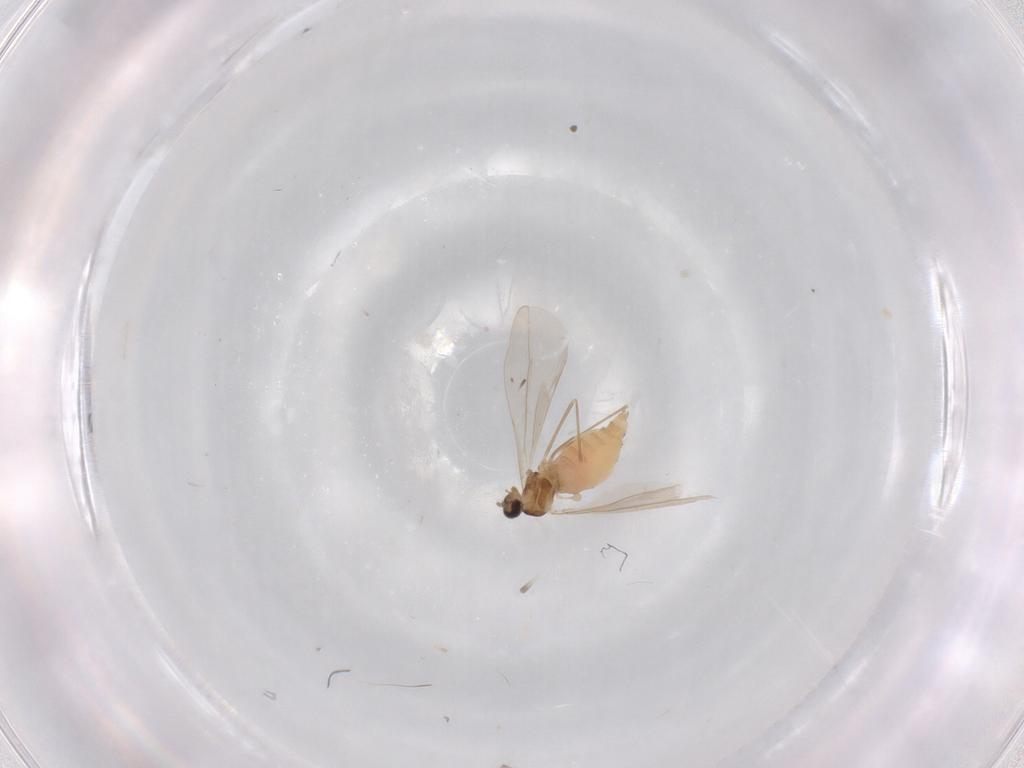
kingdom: Animalia
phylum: Arthropoda
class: Insecta
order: Diptera
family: Cecidomyiidae
